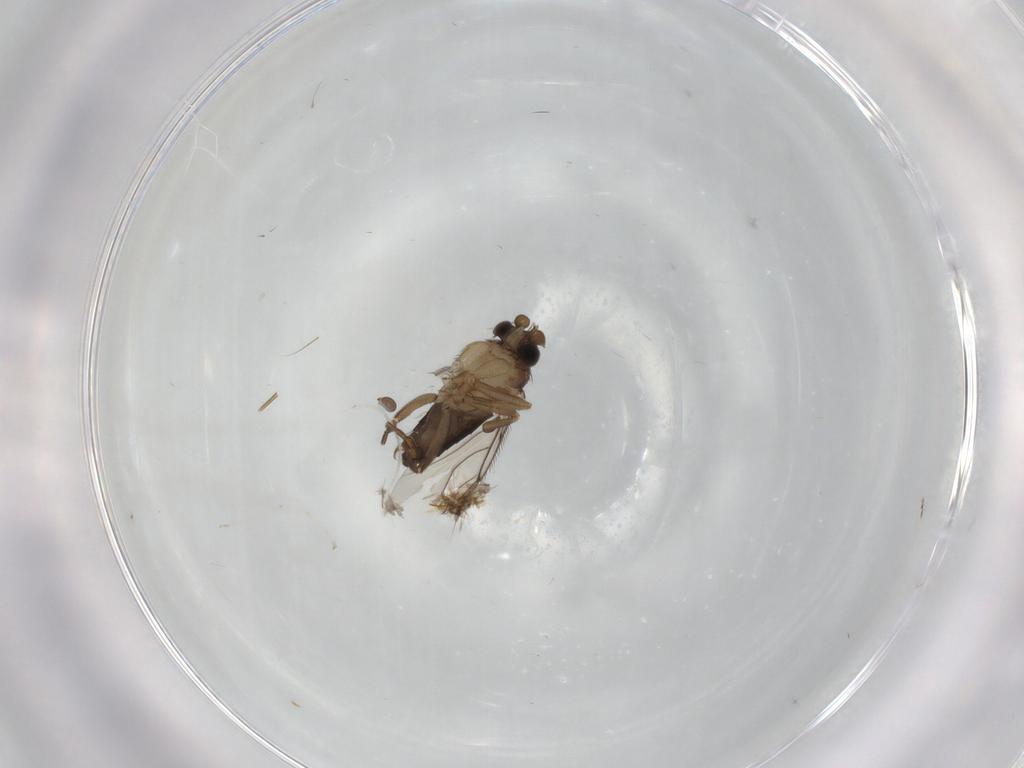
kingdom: Animalia
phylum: Arthropoda
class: Insecta
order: Diptera
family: Phoridae
